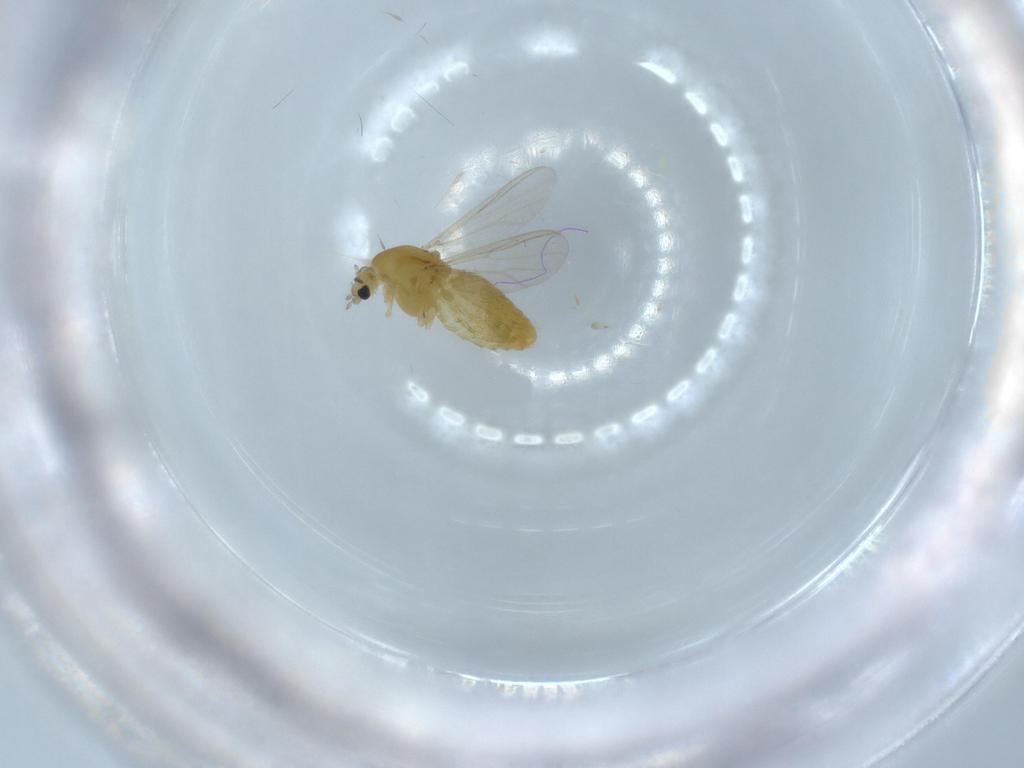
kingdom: Animalia
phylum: Arthropoda
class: Insecta
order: Diptera
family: Chironomidae
